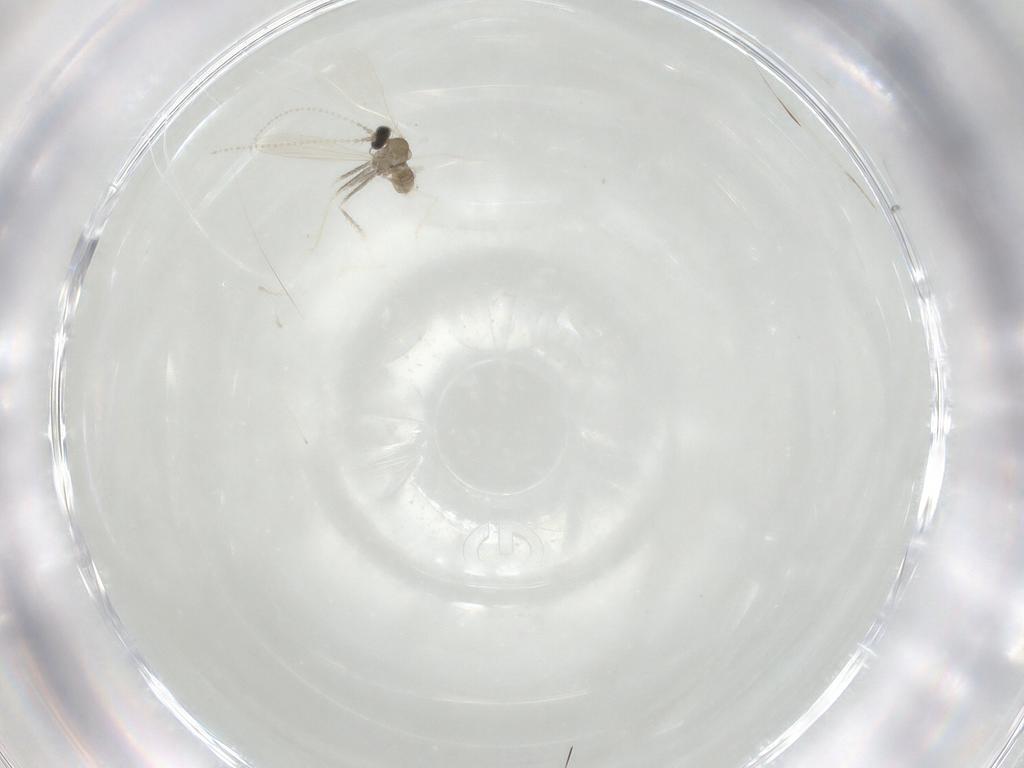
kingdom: Animalia
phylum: Arthropoda
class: Insecta
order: Diptera
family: Cecidomyiidae
